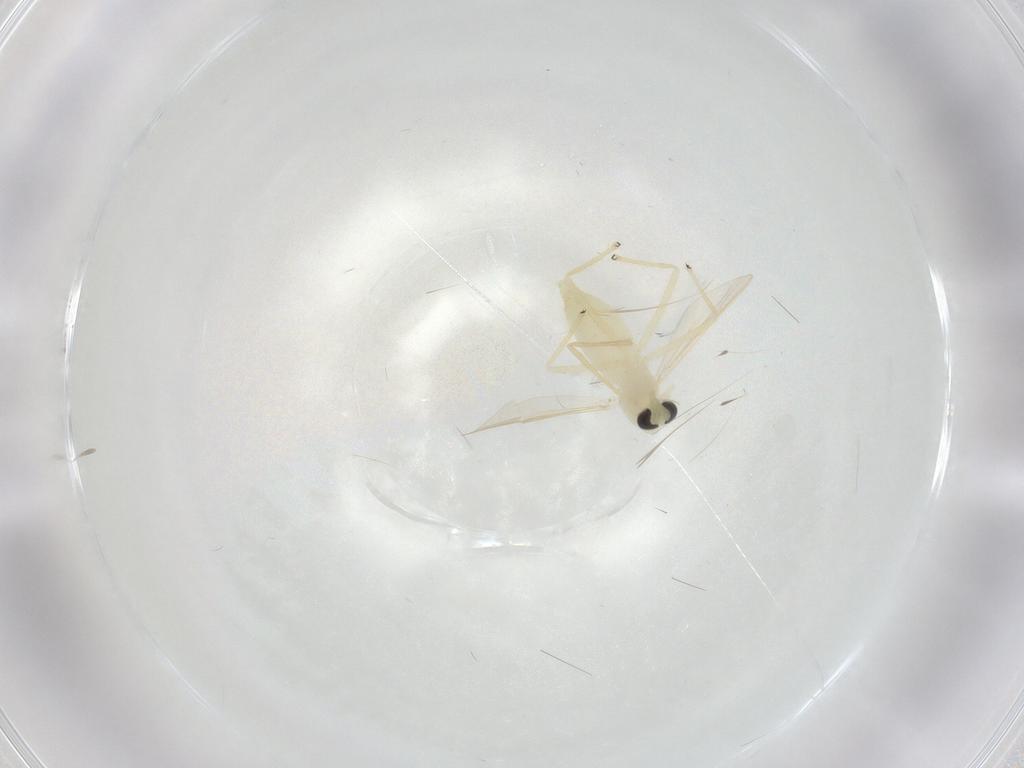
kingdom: Animalia
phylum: Arthropoda
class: Insecta
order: Diptera
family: Chironomidae
